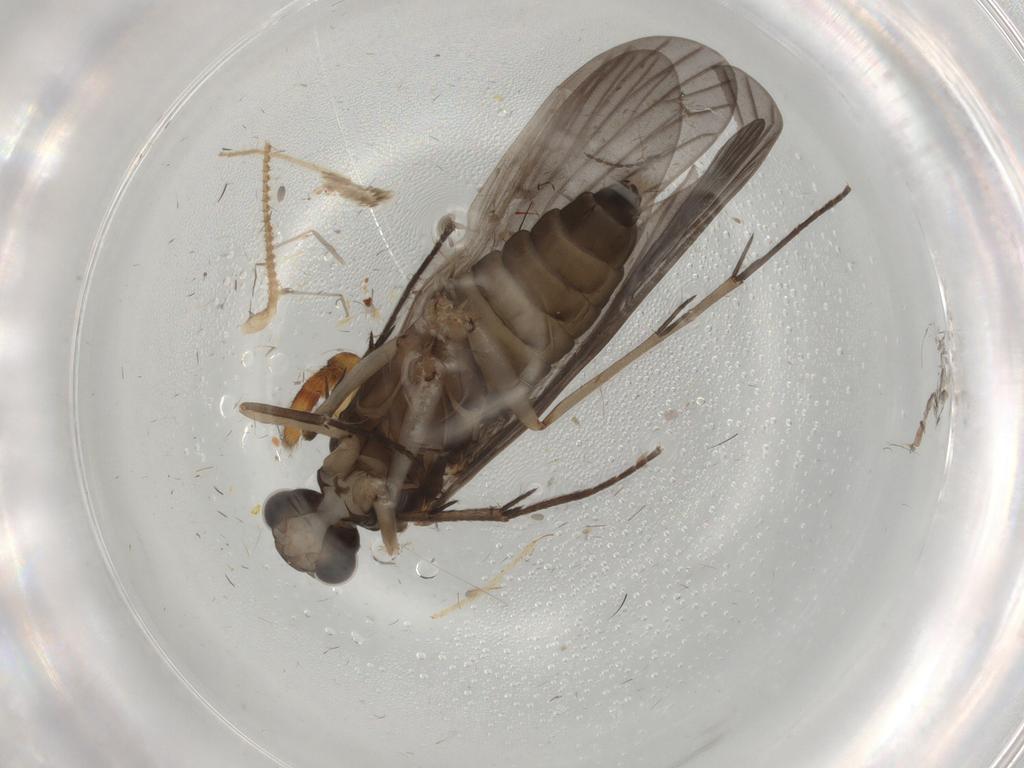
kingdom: Animalia
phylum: Arthropoda
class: Insecta
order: Trichoptera
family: Philopotamidae
